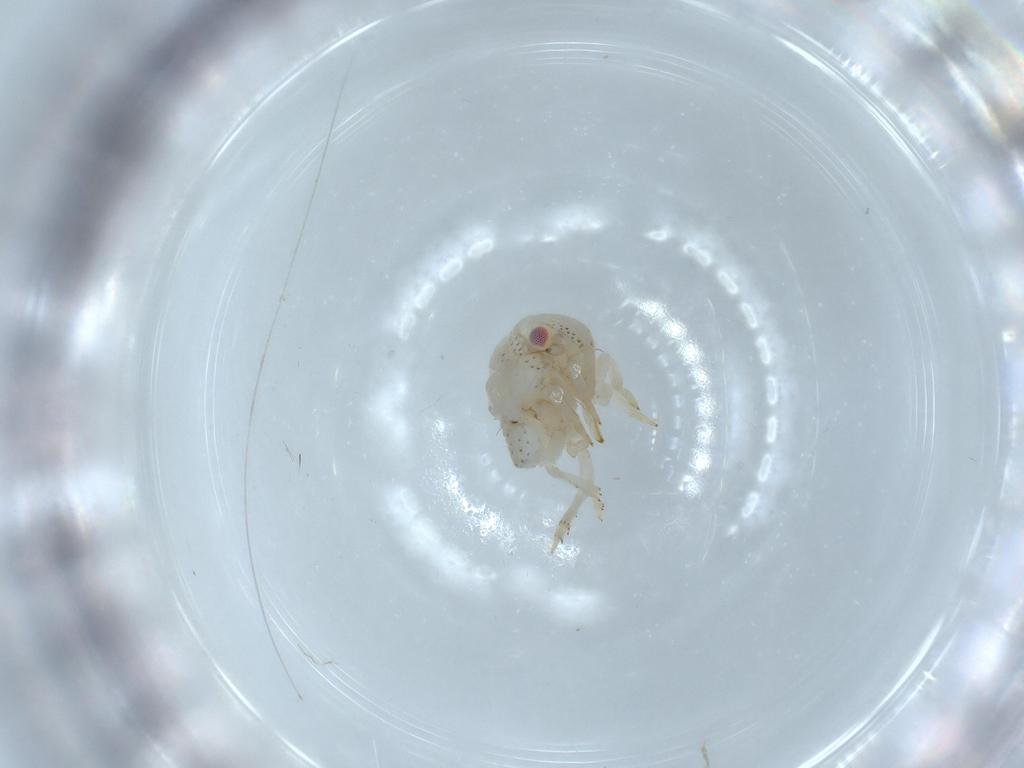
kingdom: Animalia
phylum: Arthropoda
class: Insecta
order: Hemiptera
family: Acanaloniidae
